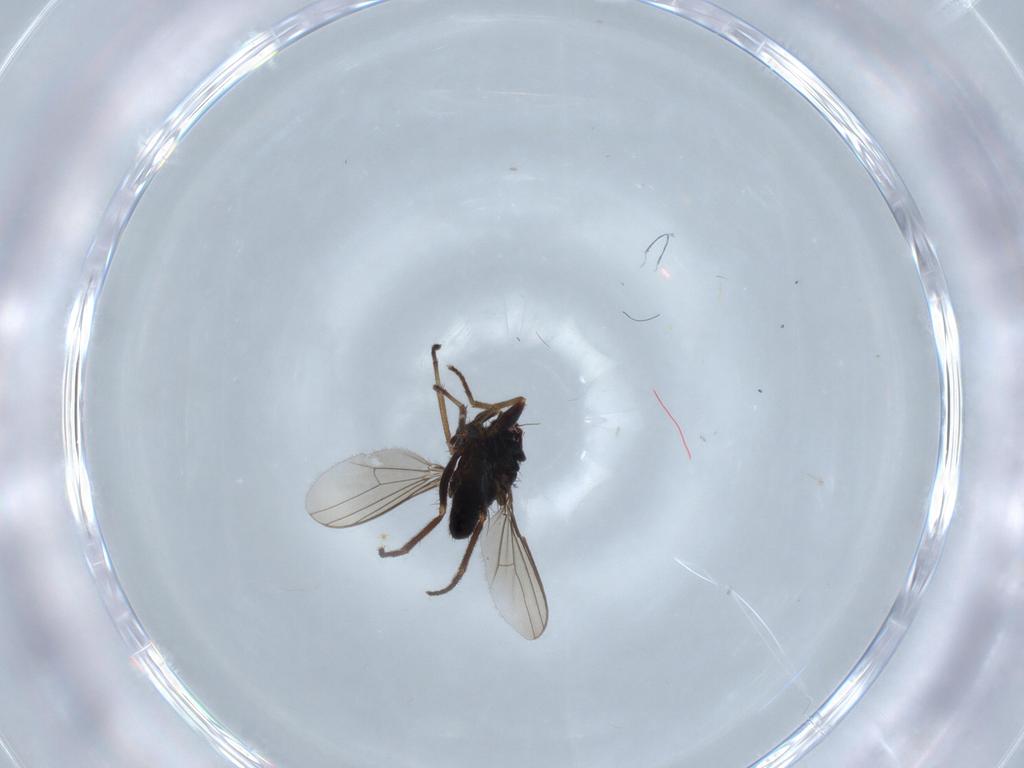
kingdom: Animalia
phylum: Arthropoda
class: Insecta
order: Diptera
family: Dolichopodidae
